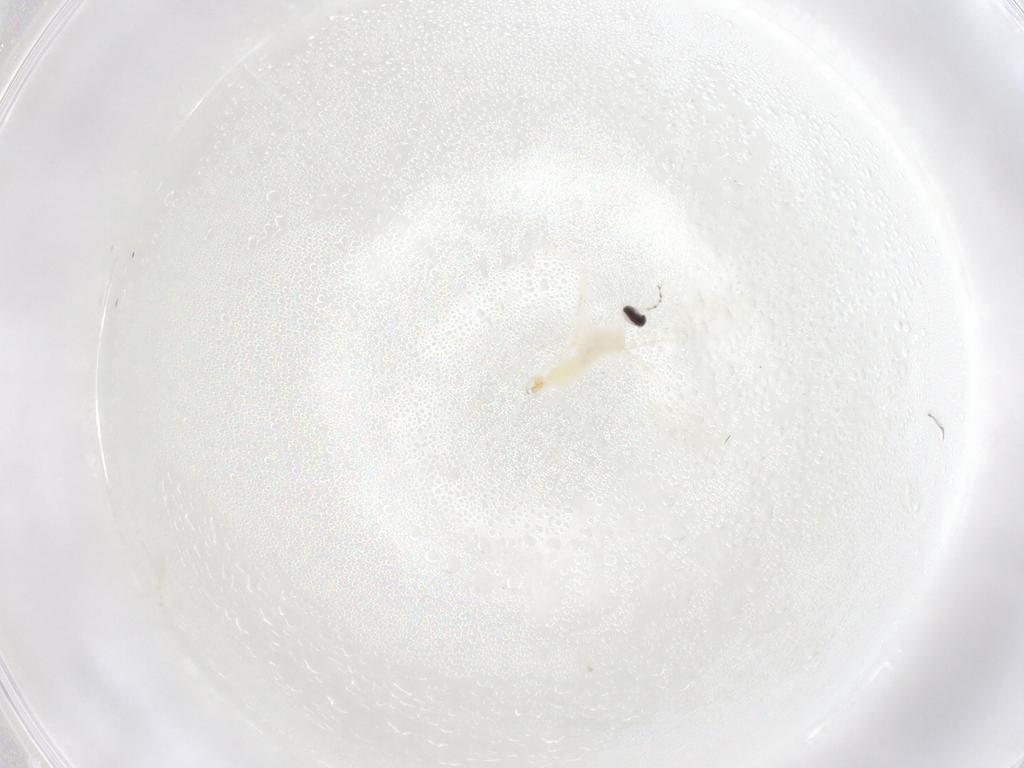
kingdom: Animalia
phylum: Arthropoda
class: Insecta
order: Diptera
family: Cecidomyiidae
